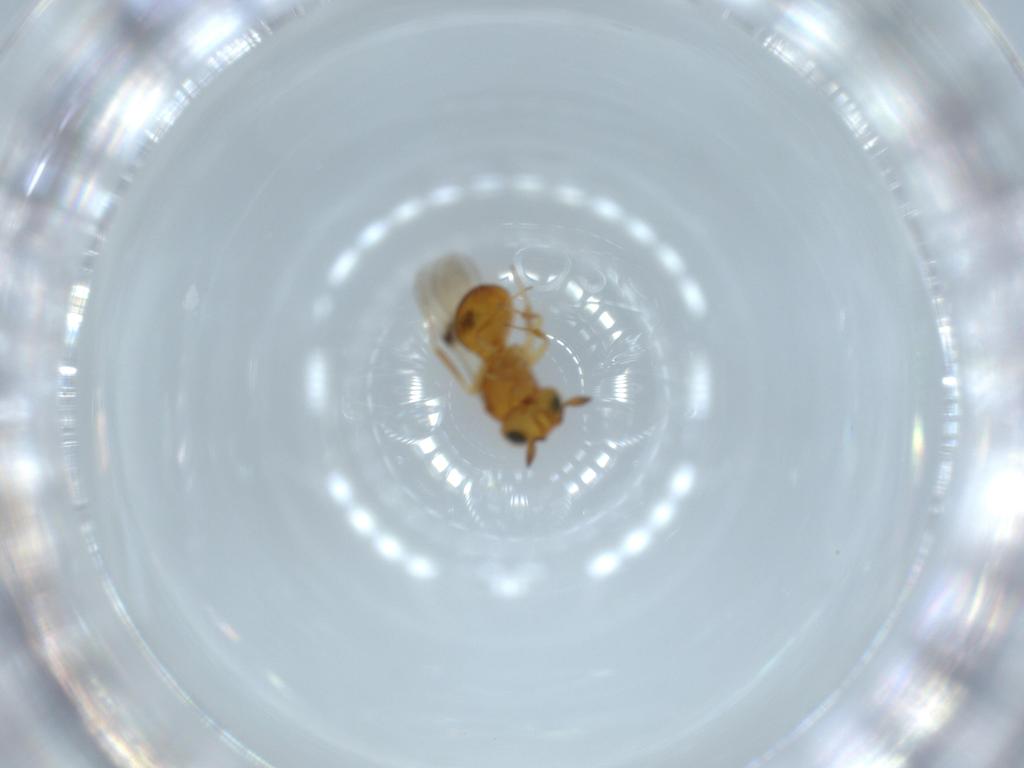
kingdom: Animalia
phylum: Arthropoda
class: Insecta
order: Hymenoptera
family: Scelionidae
